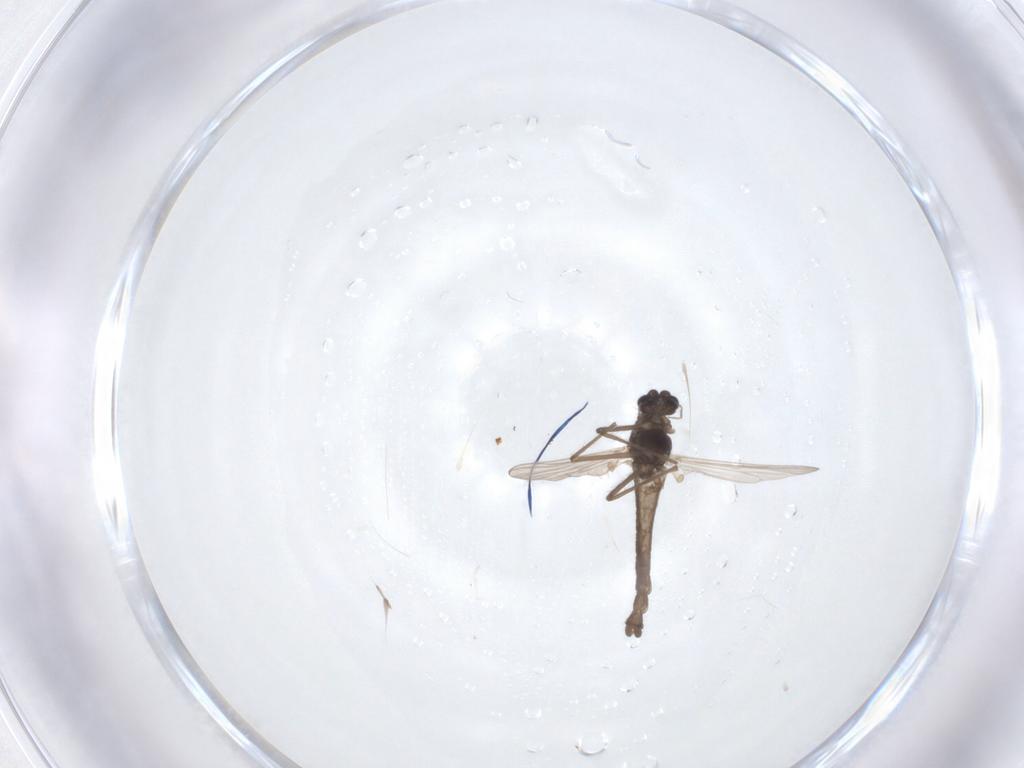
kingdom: Animalia
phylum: Arthropoda
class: Insecta
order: Diptera
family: Chironomidae
